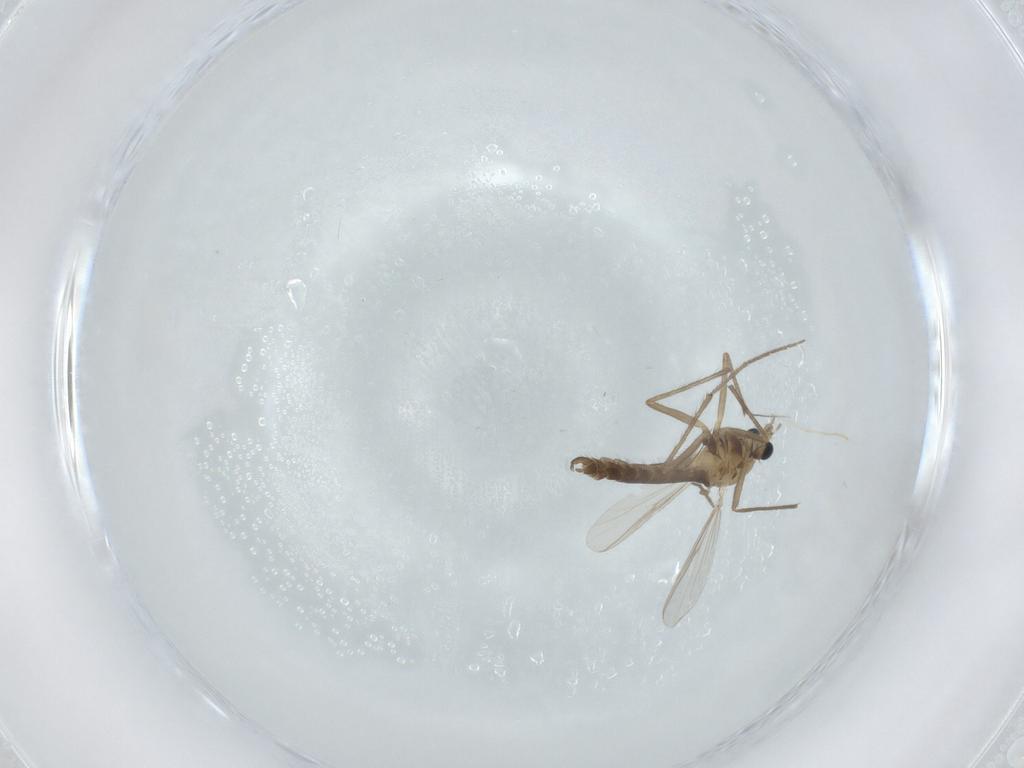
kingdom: Animalia
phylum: Arthropoda
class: Insecta
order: Diptera
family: Chironomidae
